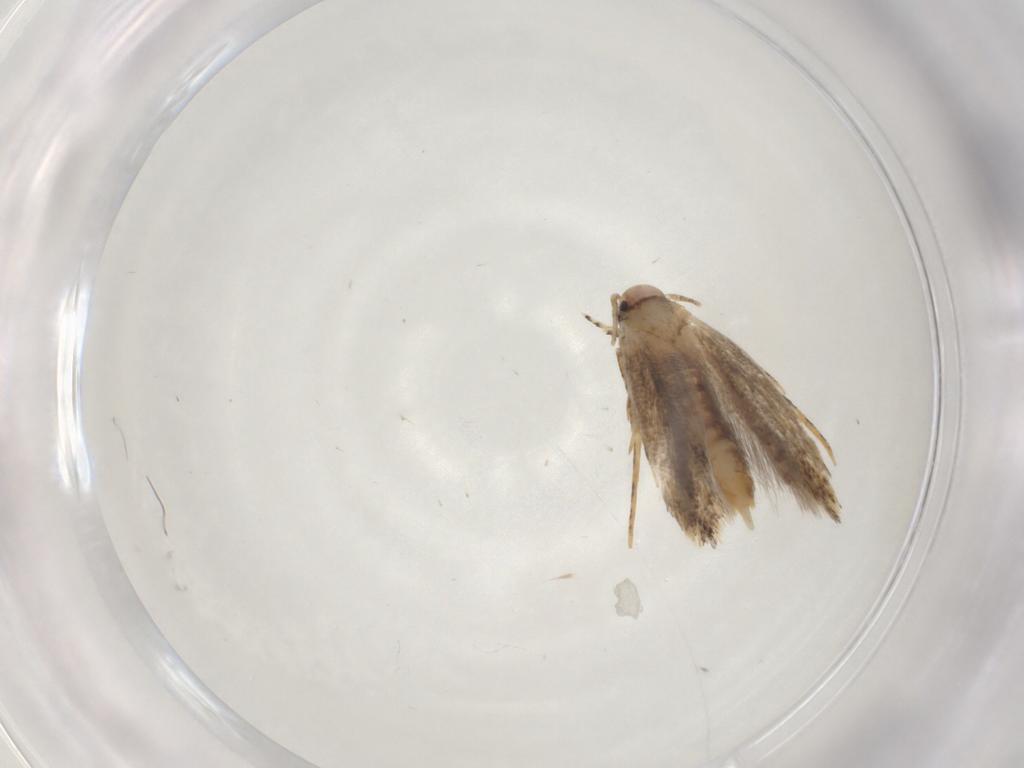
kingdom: Animalia
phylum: Arthropoda
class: Insecta
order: Lepidoptera
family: Gelechiidae
